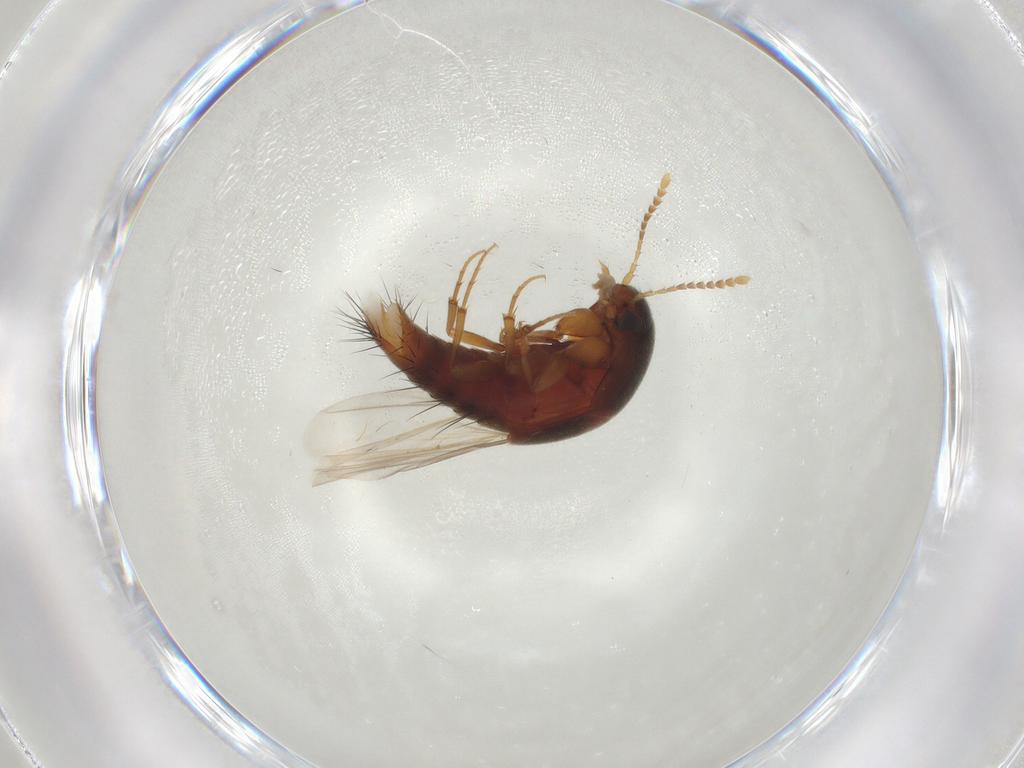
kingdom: Animalia
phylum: Arthropoda
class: Insecta
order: Coleoptera
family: Staphylinidae
